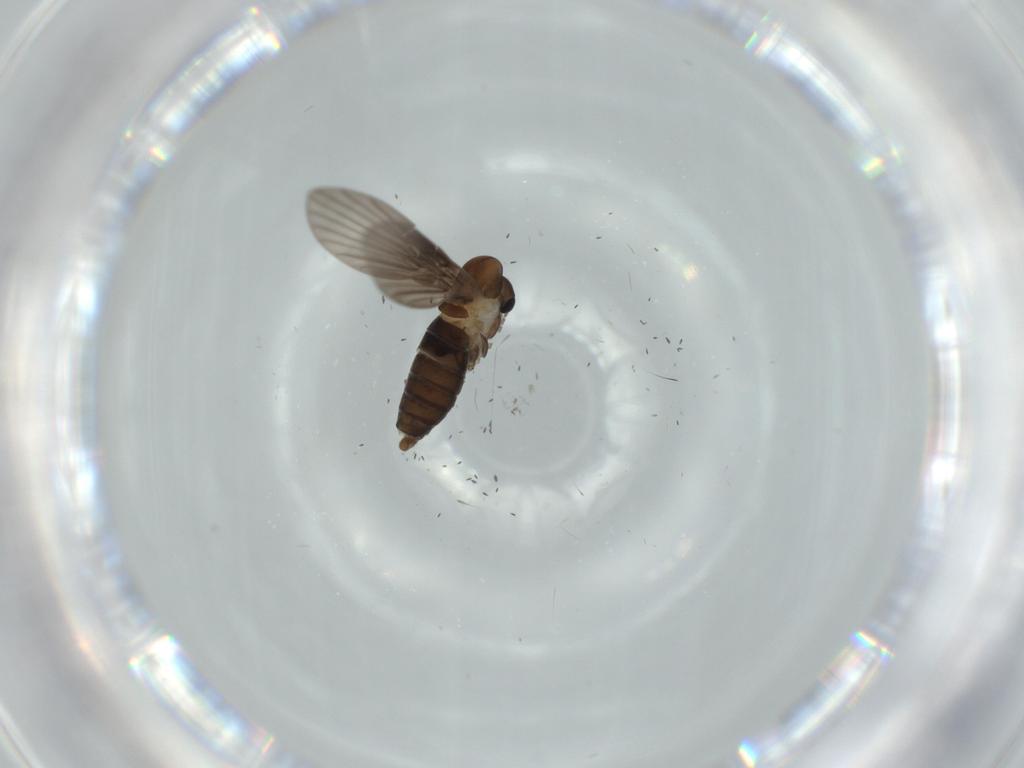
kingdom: Animalia
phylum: Arthropoda
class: Insecta
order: Diptera
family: Psychodidae
